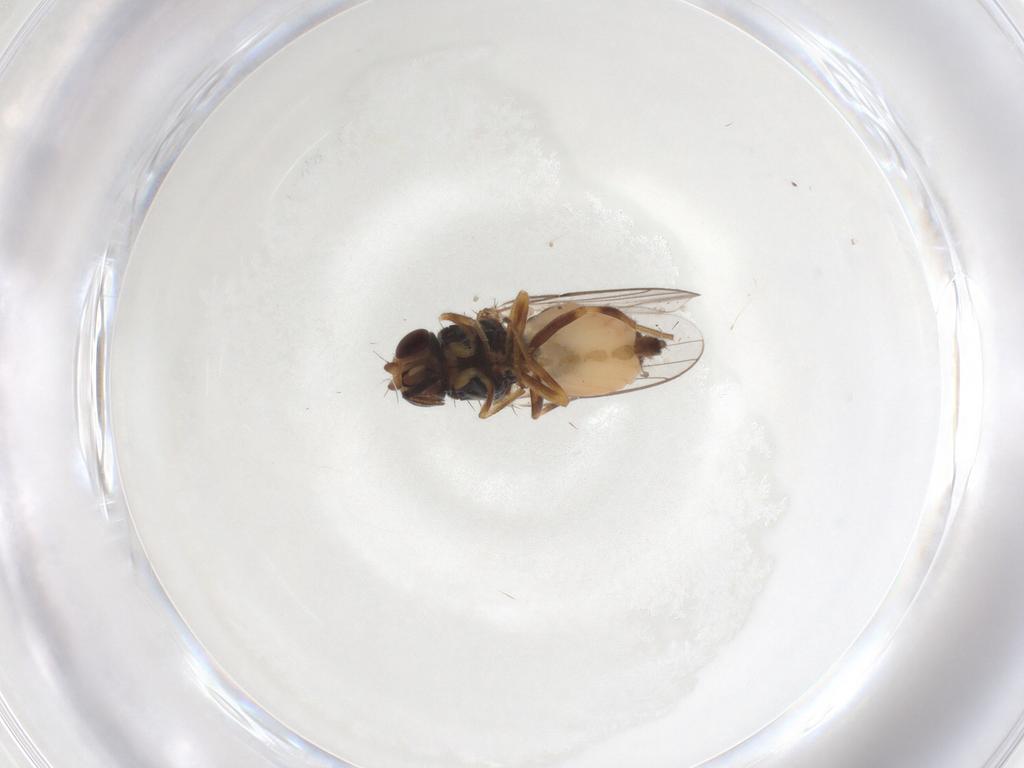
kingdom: Animalia
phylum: Arthropoda
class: Insecta
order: Diptera
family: Chloropidae
